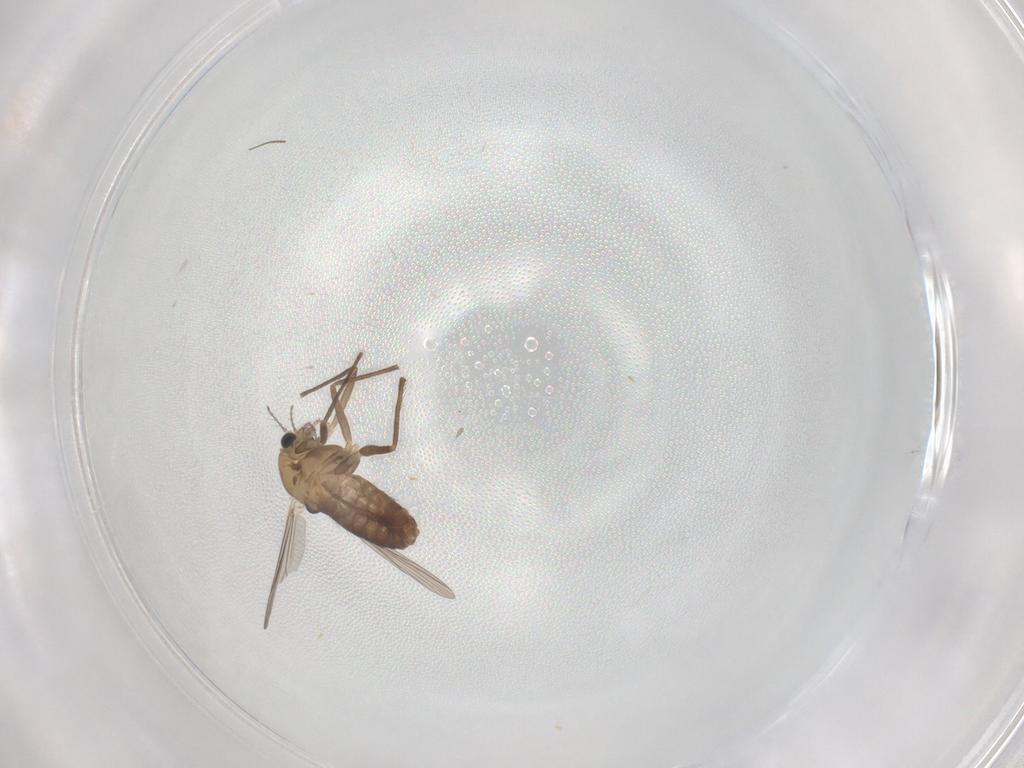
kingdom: Animalia
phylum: Arthropoda
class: Insecta
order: Diptera
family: Chironomidae
